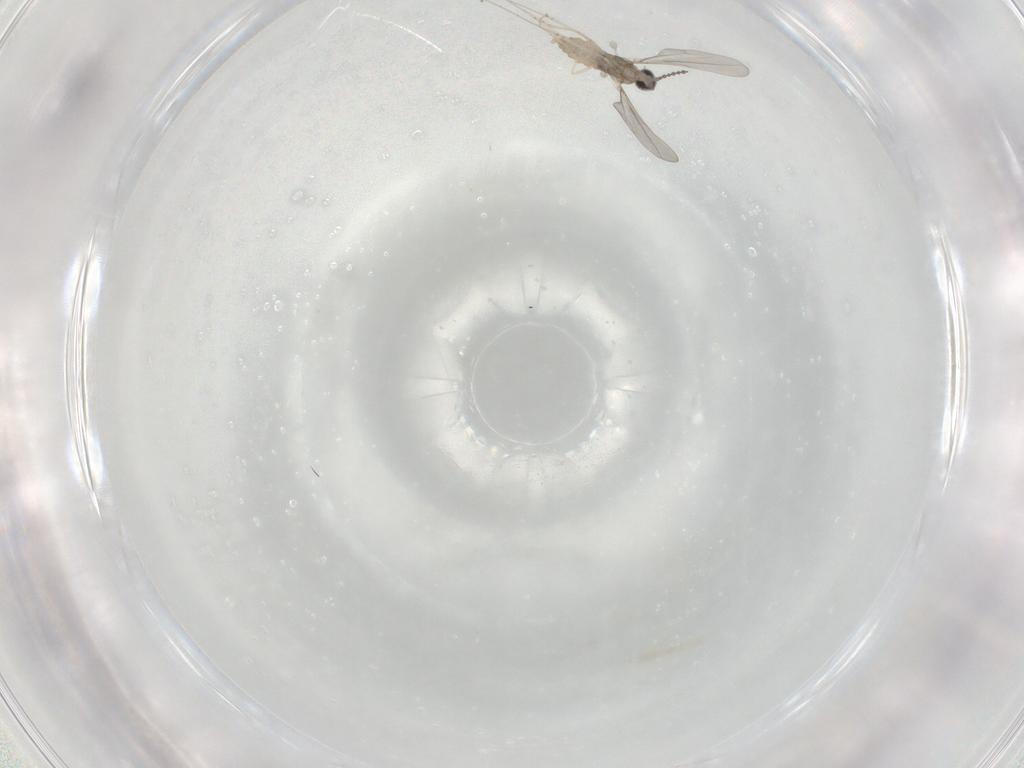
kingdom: Animalia
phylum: Arthropoda
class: Insecta
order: Diptera
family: Cecidomyiidae
